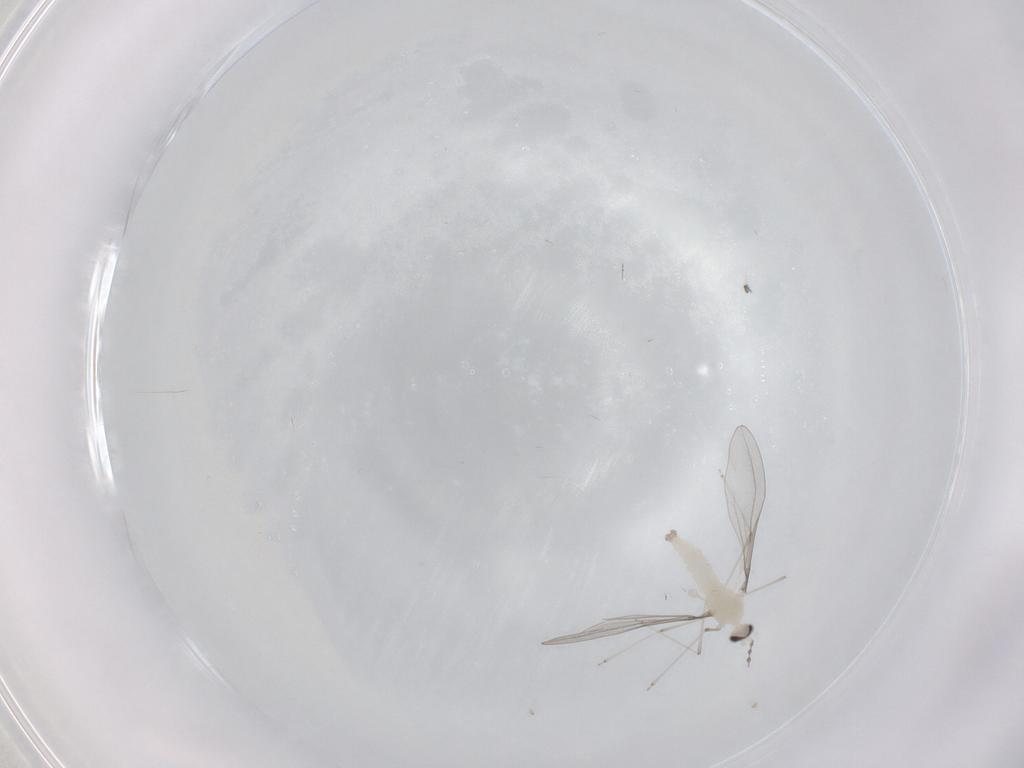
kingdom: Animalia
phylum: Arthropoda
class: Insecta
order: Diptera
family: Cecidomyiidae
